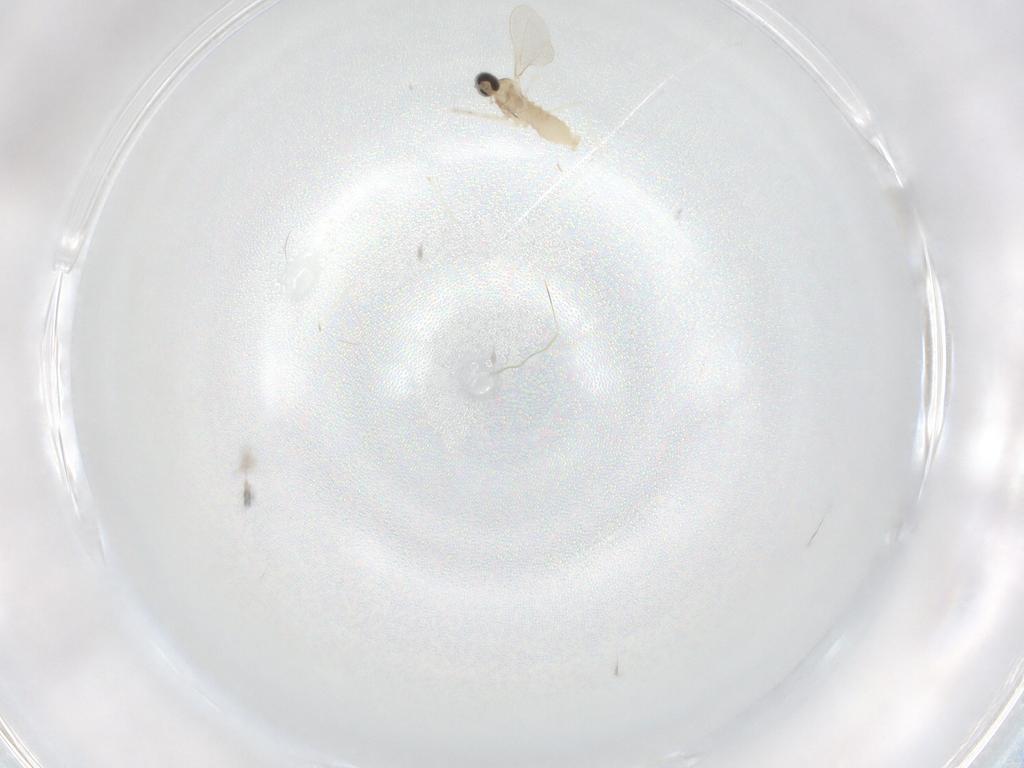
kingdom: Animalia
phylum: Arthropoda
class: Insecta
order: Diptera
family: Cecidomyiidae
